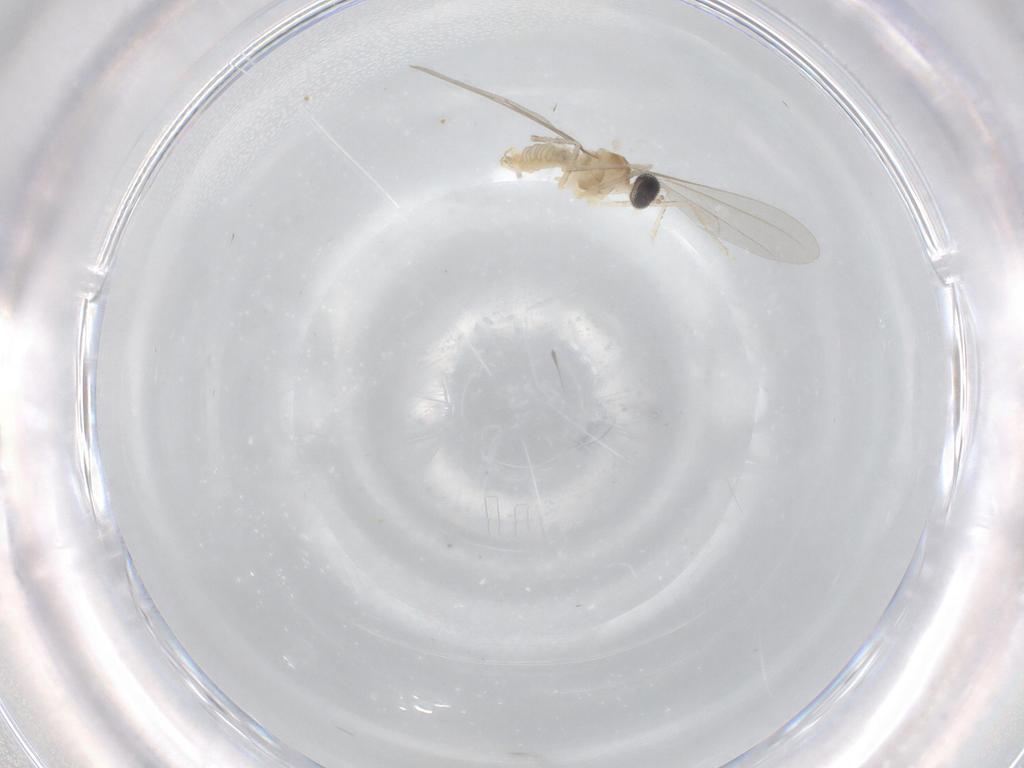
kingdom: Animalia
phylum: Arthropoda
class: Insecta
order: Diptera
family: Cecidomyiidae
